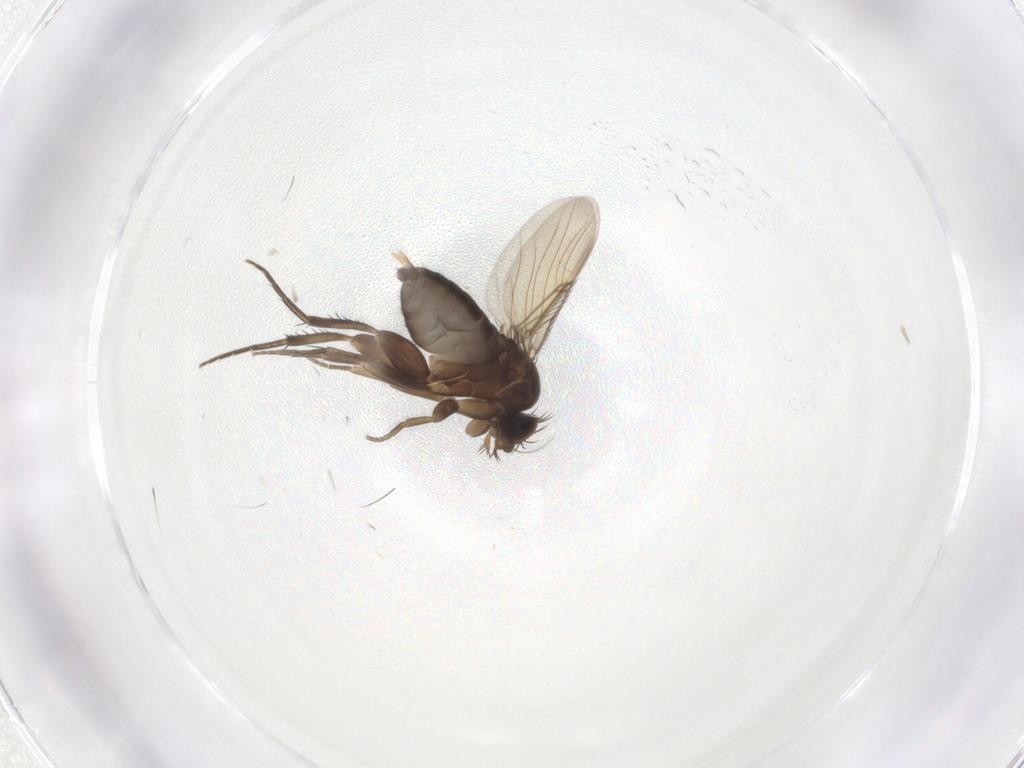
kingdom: Animalia
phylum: Arthropoda
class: Insecta
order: Diptera
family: Phoridae
